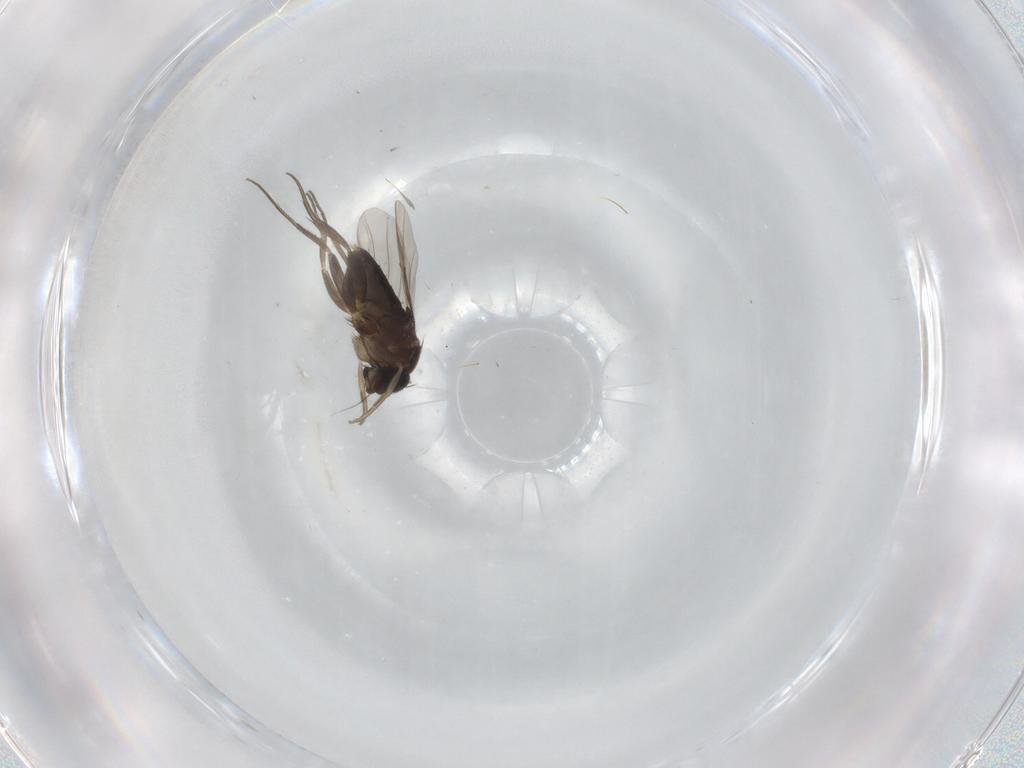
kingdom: Animalia
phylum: Arthropoda
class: Insecta
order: Diptera
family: Phoridae
